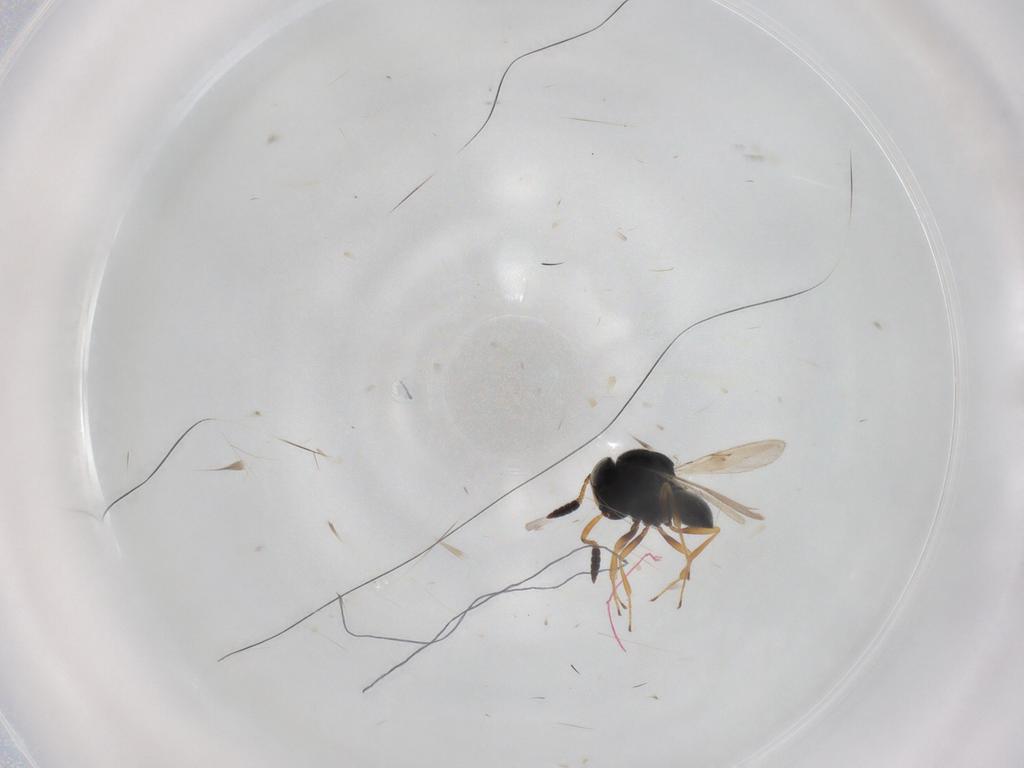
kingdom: Animalia
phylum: Arthropoda
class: Insecta
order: Hymenoptera
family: Scelionidae
